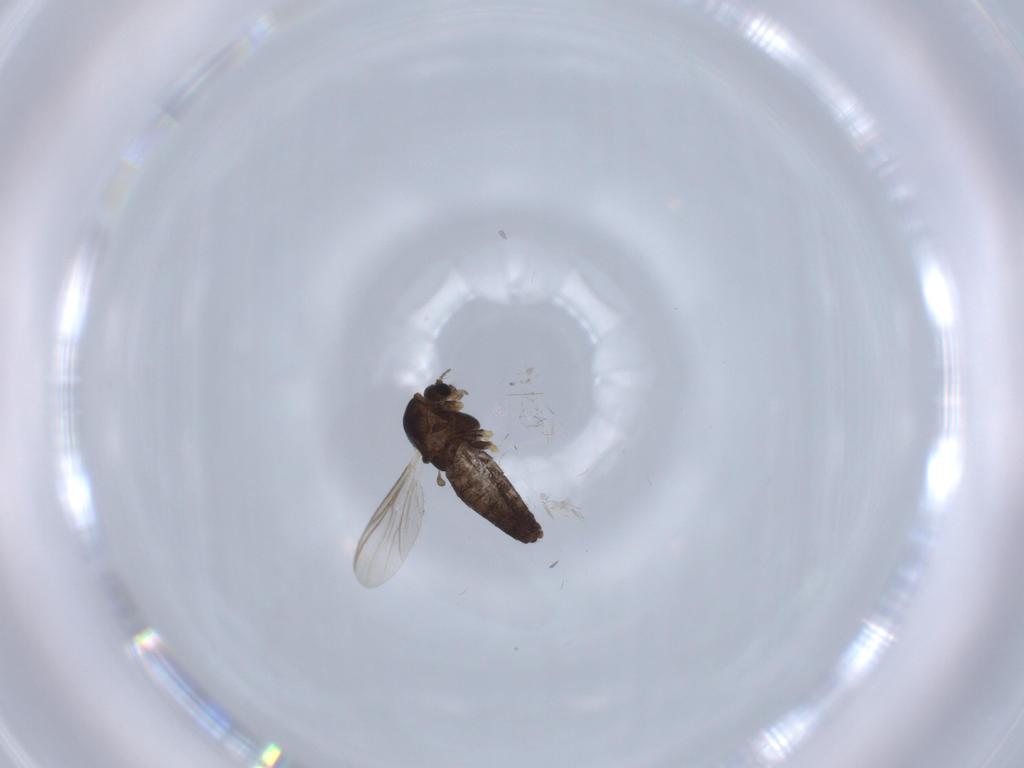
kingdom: Animalia
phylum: Arthropoda
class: Insecta
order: Diptera
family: Chironomidae
